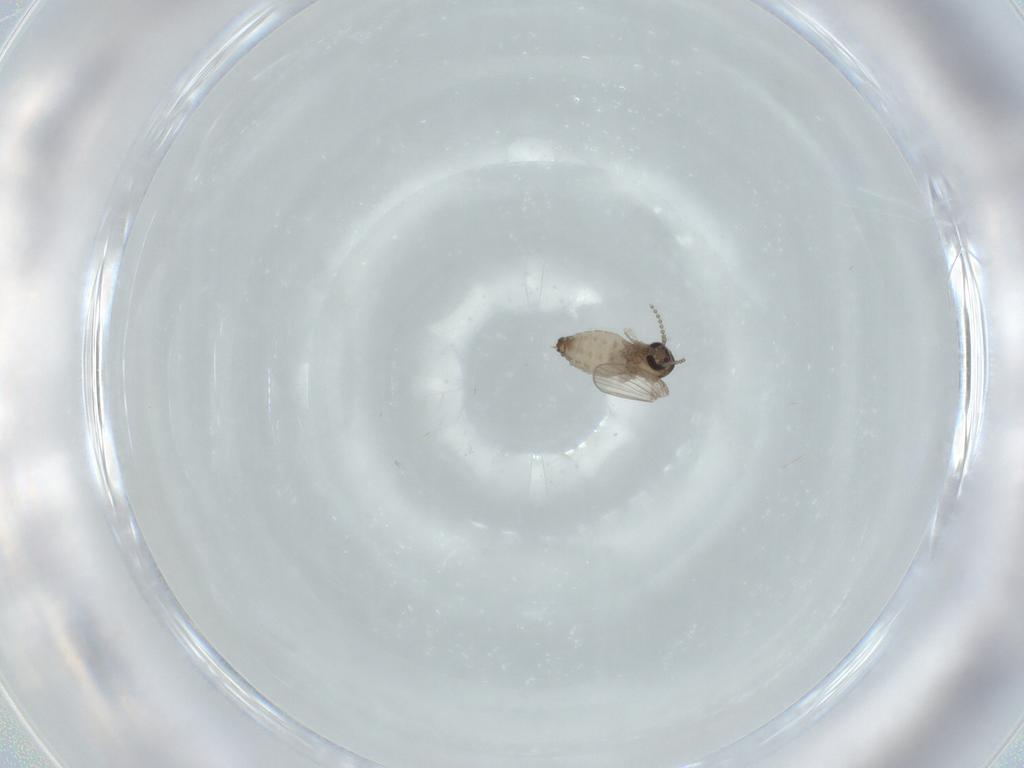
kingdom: Animalia
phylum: Arthropoda
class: Insecta
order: Diptera
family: Psychodidae
